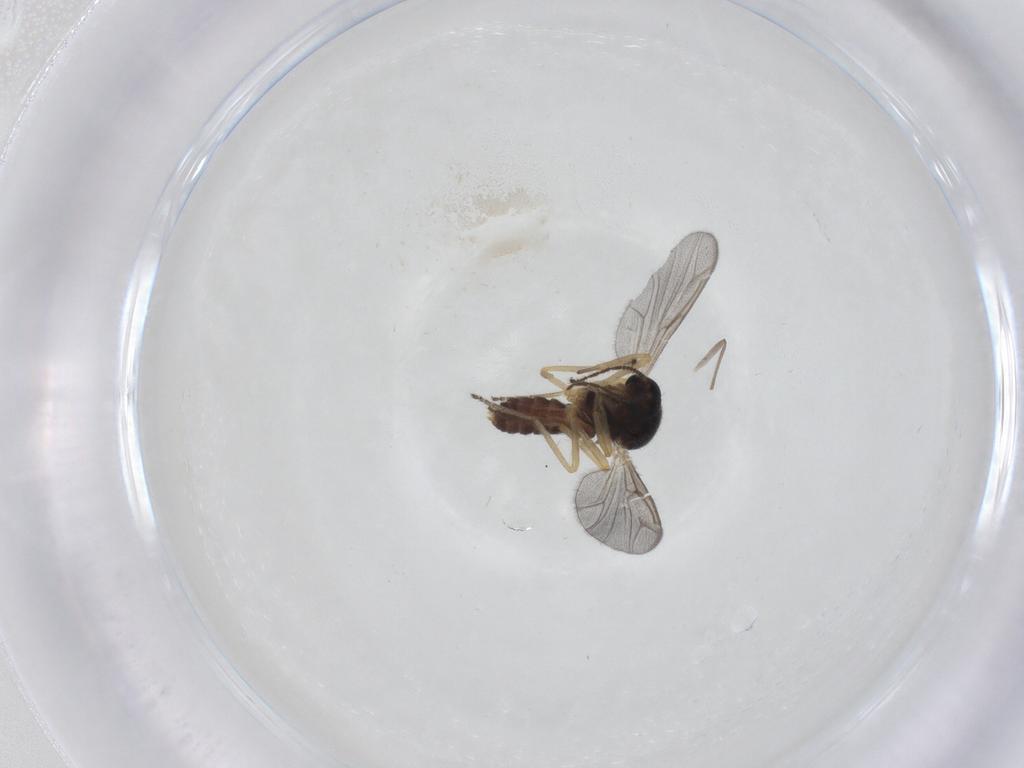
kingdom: Animalia
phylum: Arthropoda
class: Insecta
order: Diptera
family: Ceratopogonidae
